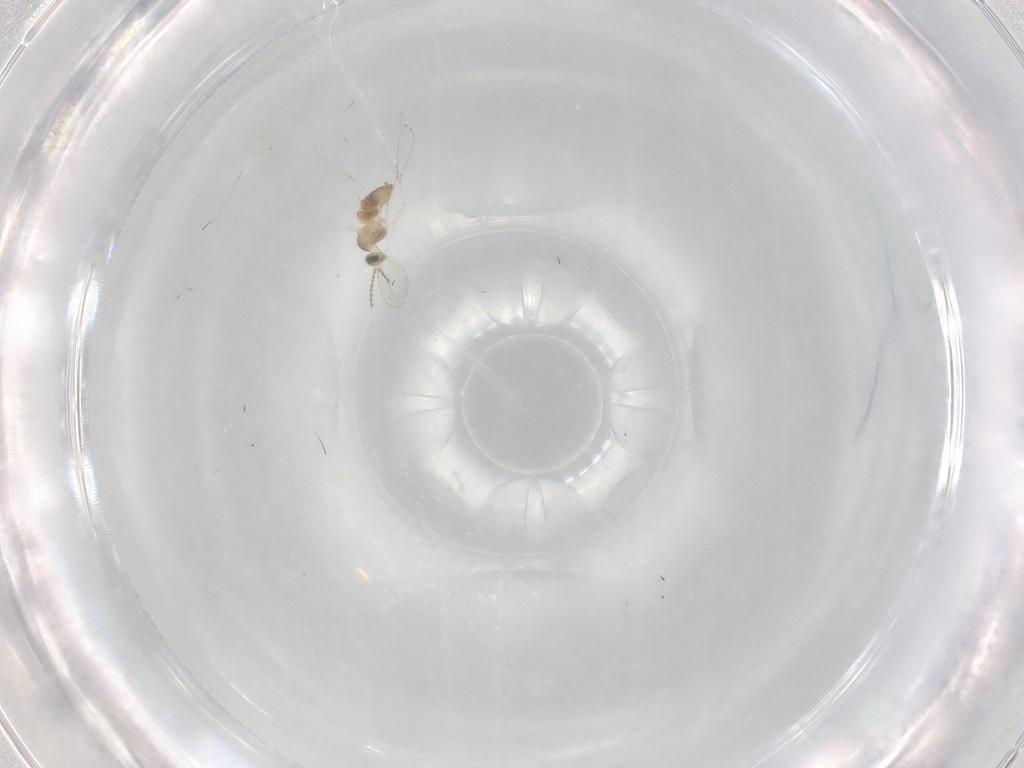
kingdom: Animalia
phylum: Arthropoda
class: Insecta
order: Diptera
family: Cecidomyiidae
